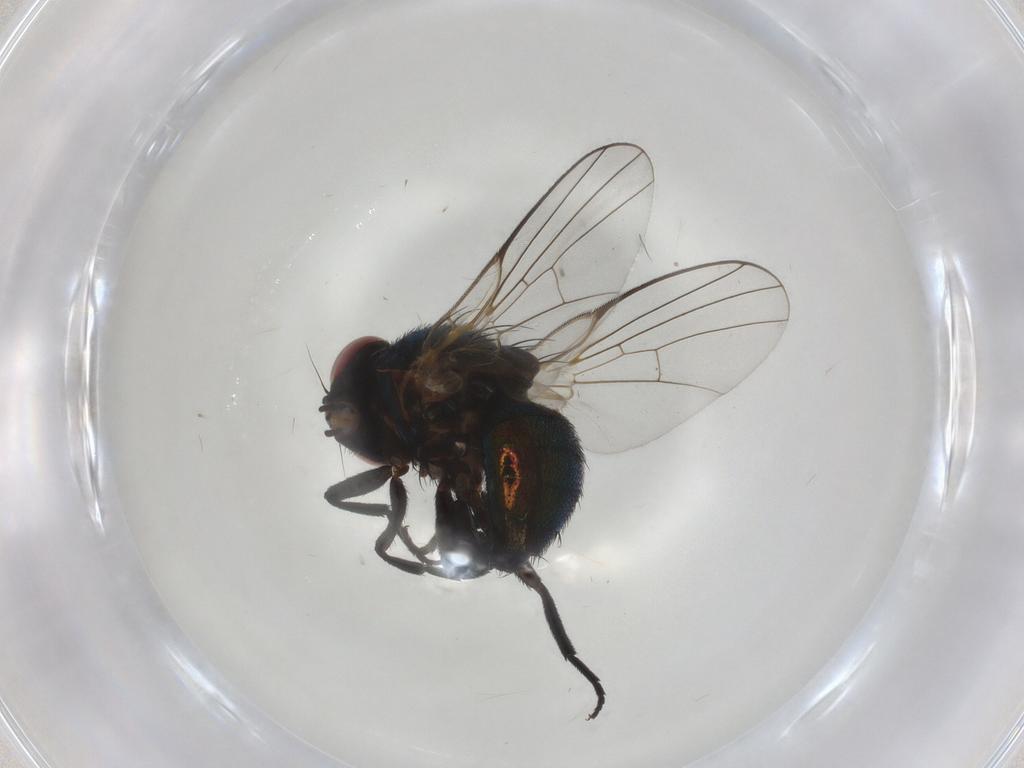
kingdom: Animalia
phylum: Arthropoda
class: Insecta
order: Diptera
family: Agromyzidae
